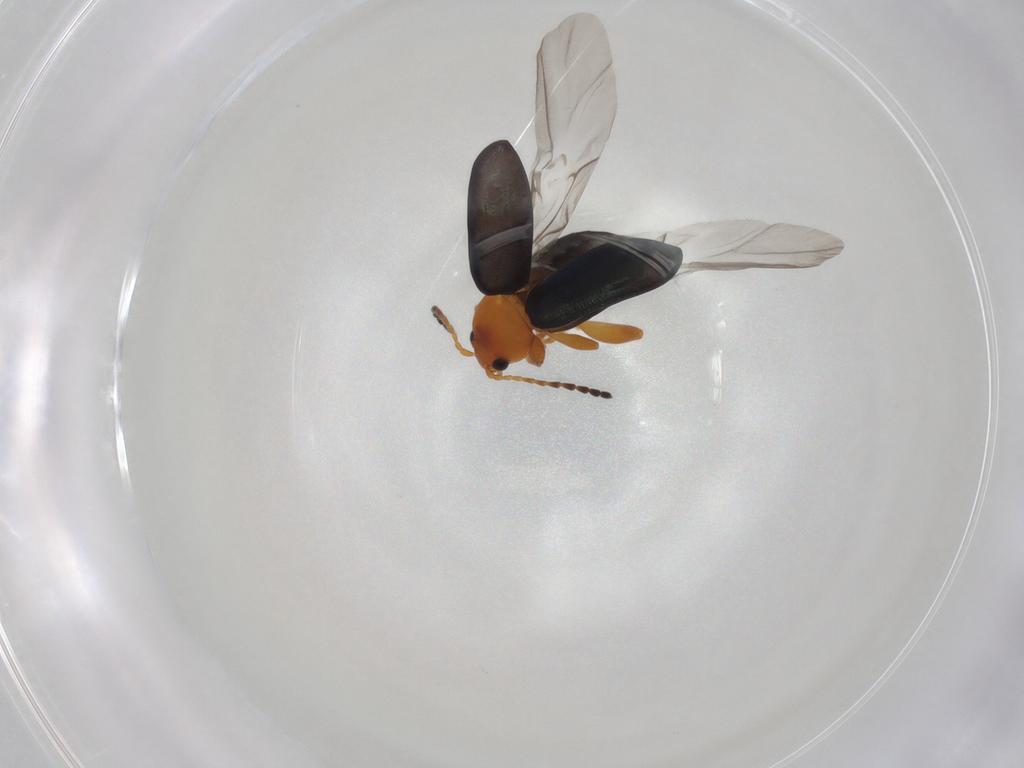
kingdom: Animalia
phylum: Arthropoda
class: Insecta
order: Coleoptera
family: Chrysomelidae
